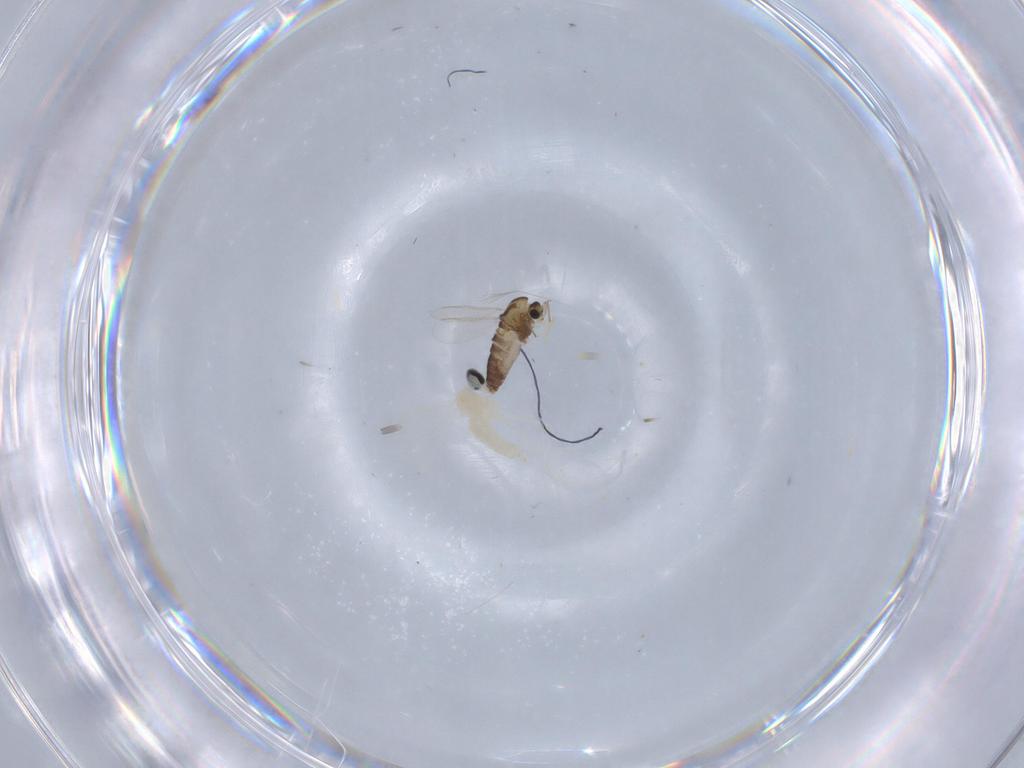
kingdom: Animalia
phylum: Arthropoda
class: Insecta
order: Diptera
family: Chironomidae
